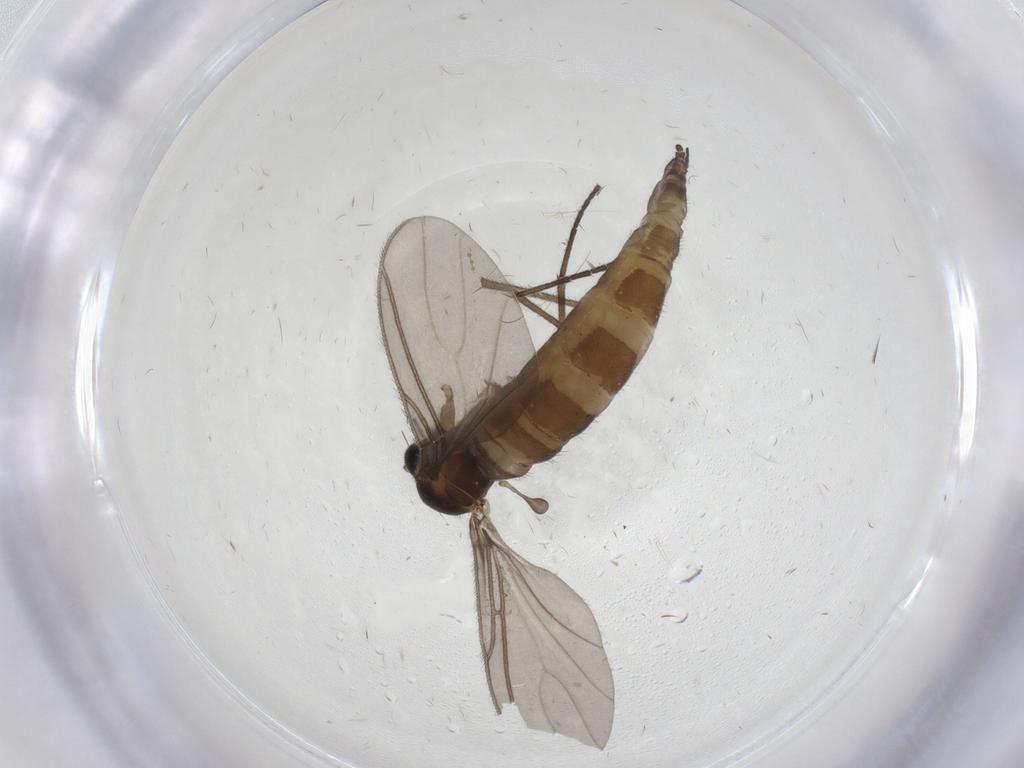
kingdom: Animalia
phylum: Arthropoda
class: Insecta
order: Diptera
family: Sciaridae
